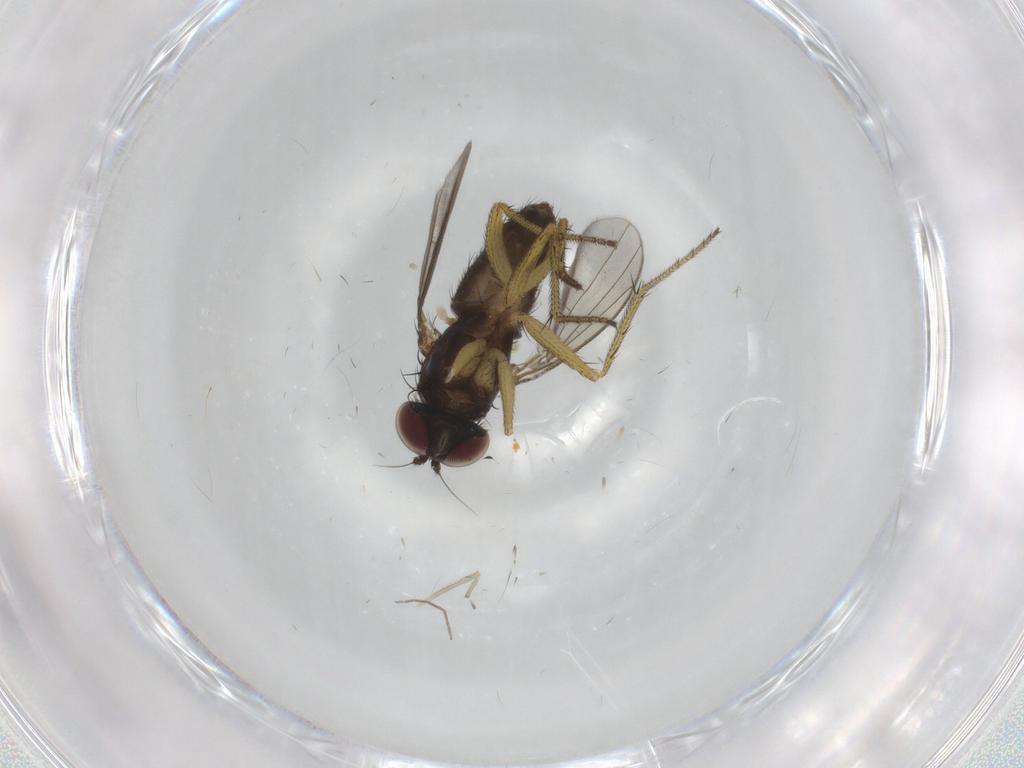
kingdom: Animalia
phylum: Arthropoda
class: Insecta
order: Diptera
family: Chironomidae
